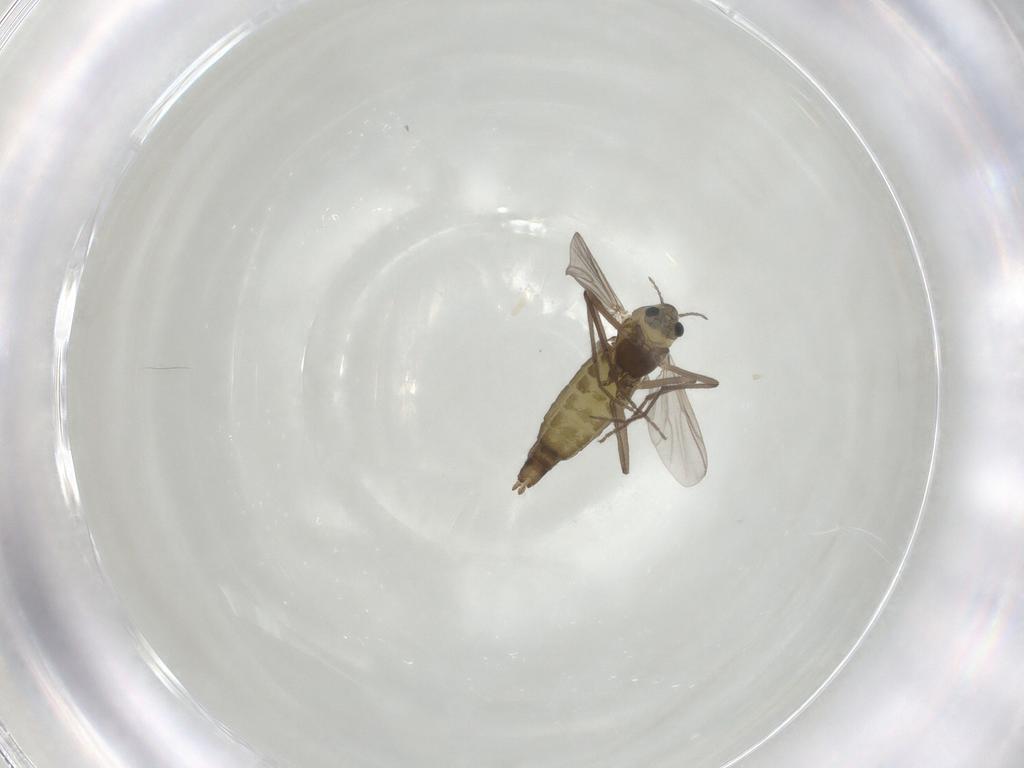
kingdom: Animalia
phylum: Arthropoda
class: Insecta
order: Diptera
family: Chironomidae
